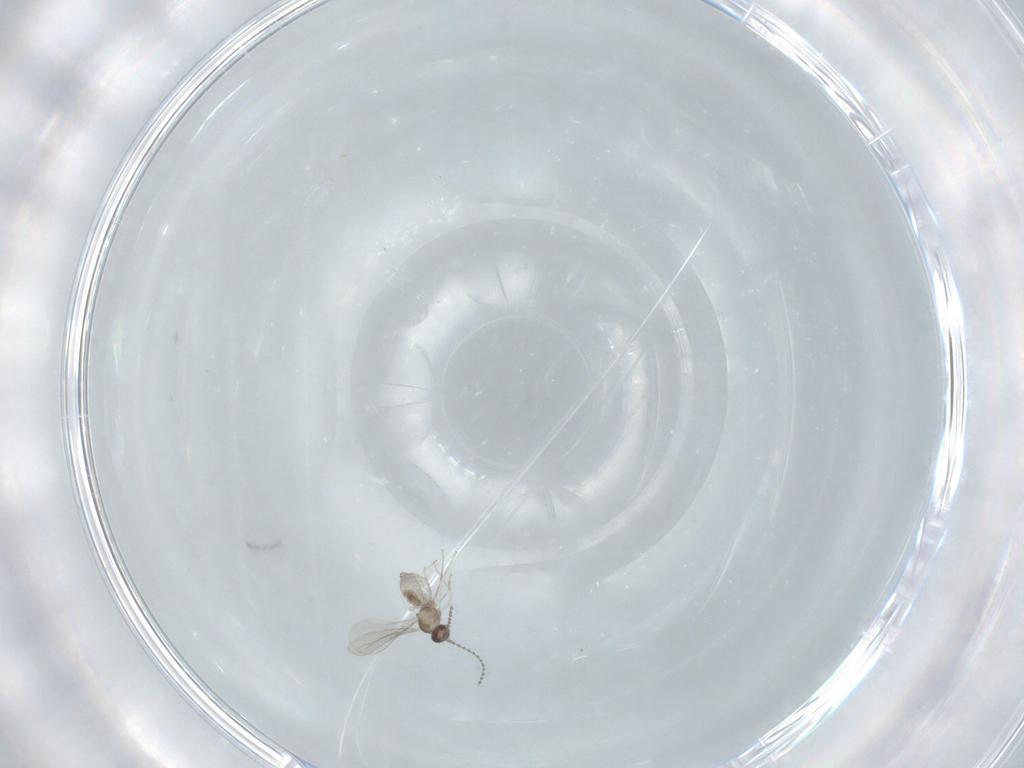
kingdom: Animalia
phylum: Arthropoda
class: Insecta
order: Diptera
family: Cecidomyiidae
